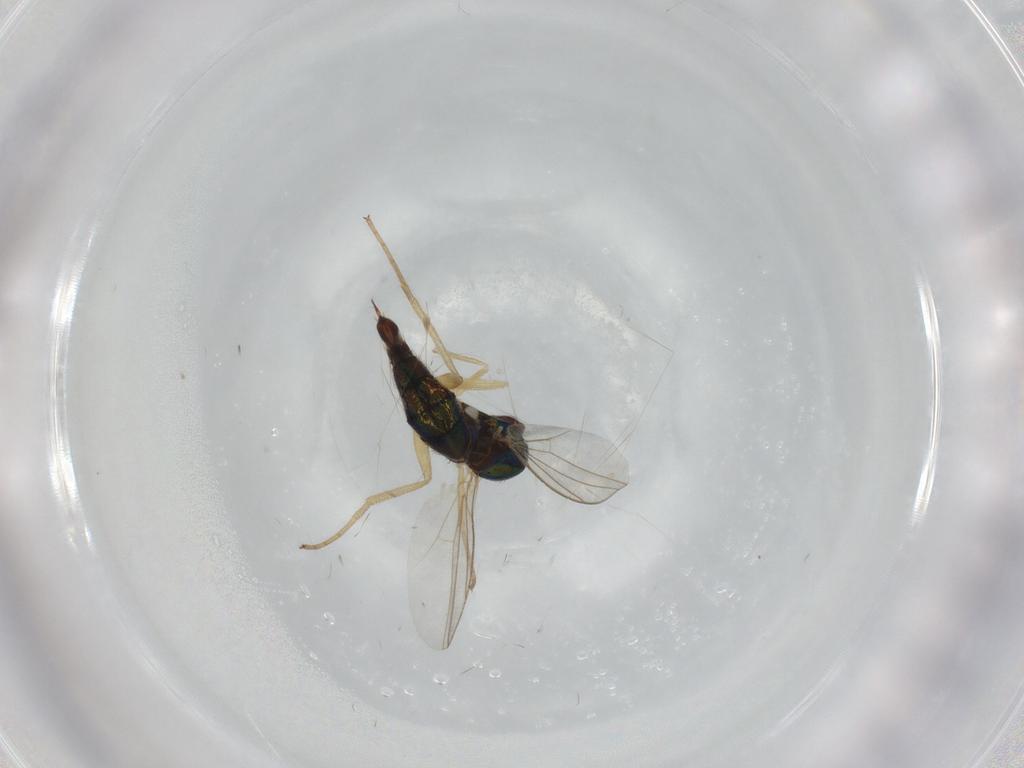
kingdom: Animalia
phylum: Arthropoda
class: Insecta
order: Diptera
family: Dolichopodidae
